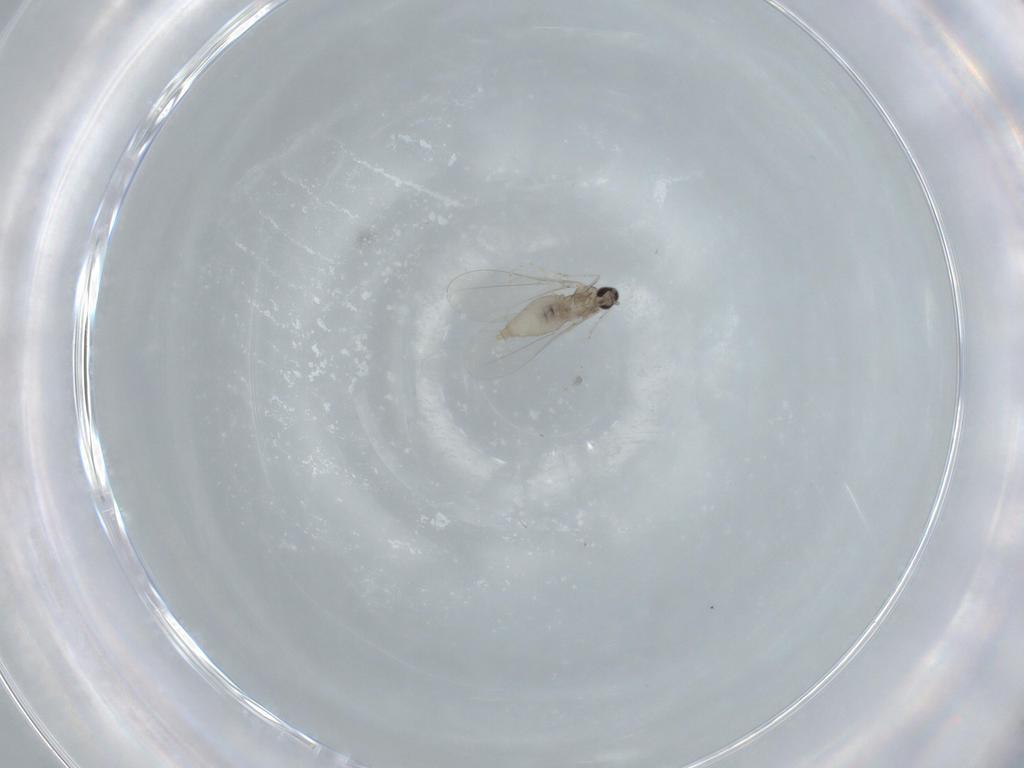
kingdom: Animalia
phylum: Arthropoda
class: Insecta
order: Diptera
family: Cecidomyiidae
